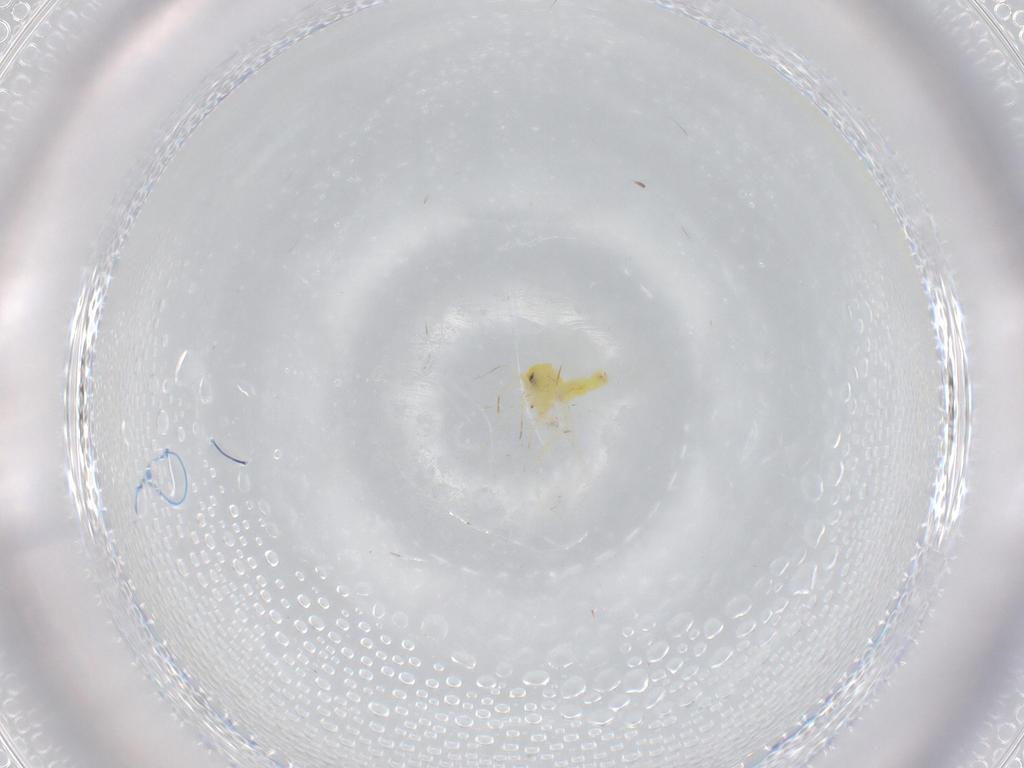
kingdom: Animalia
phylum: Arthropoda
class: Insecta
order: Hemiptera
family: Aleyrodidae
